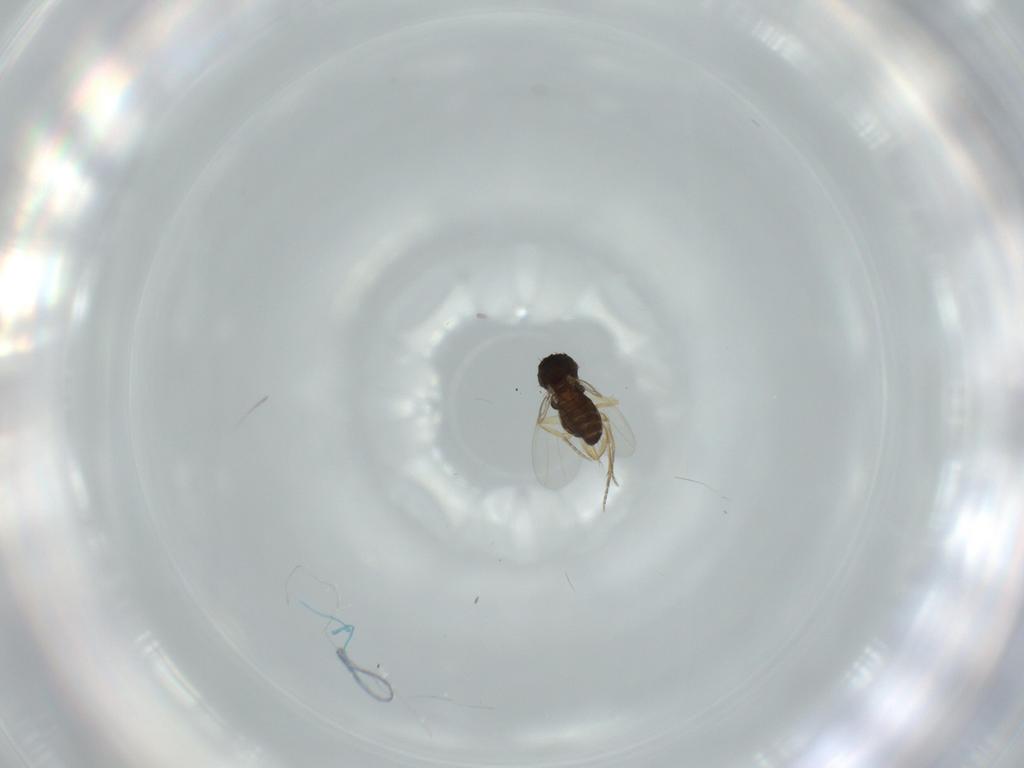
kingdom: Animalia
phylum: Arthropoda
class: Insecta
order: Diptera
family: Phoridae
